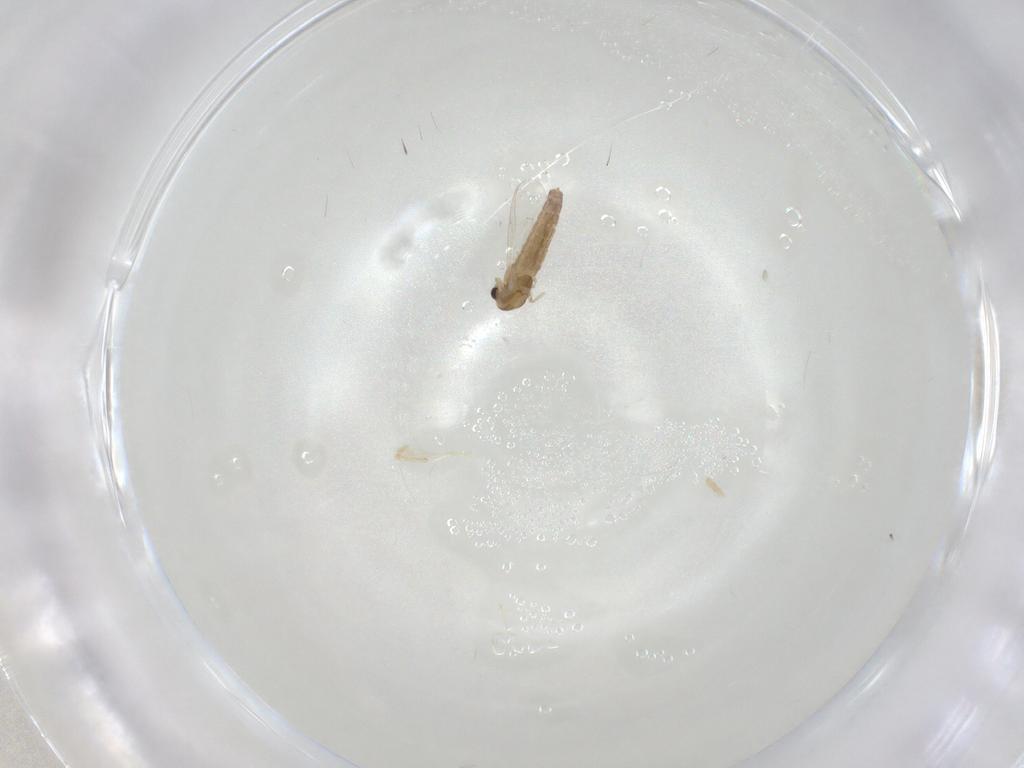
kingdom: Animalia
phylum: Arthropoda
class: Insecta
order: Diptera
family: Chironomidae
